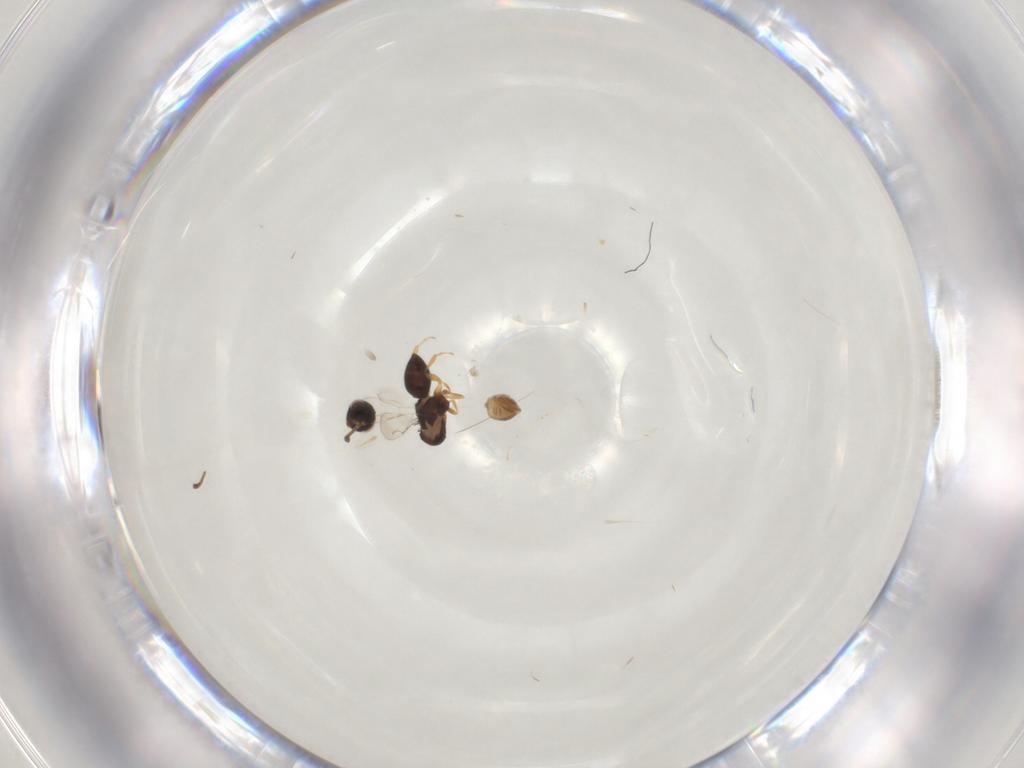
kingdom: Animalia
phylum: Arthropoda
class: Insecta
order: Hymenoptera
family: Mymaridae
